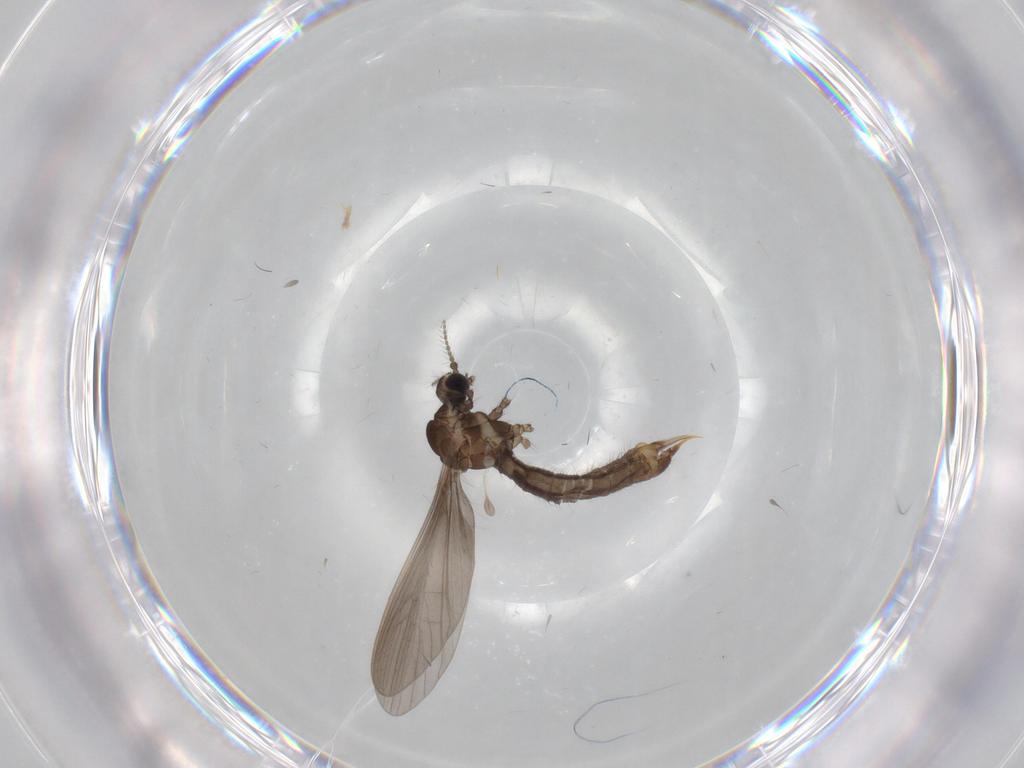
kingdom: Animalia
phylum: Arthropoda
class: Insecta
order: Diptera
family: Limoniidae
